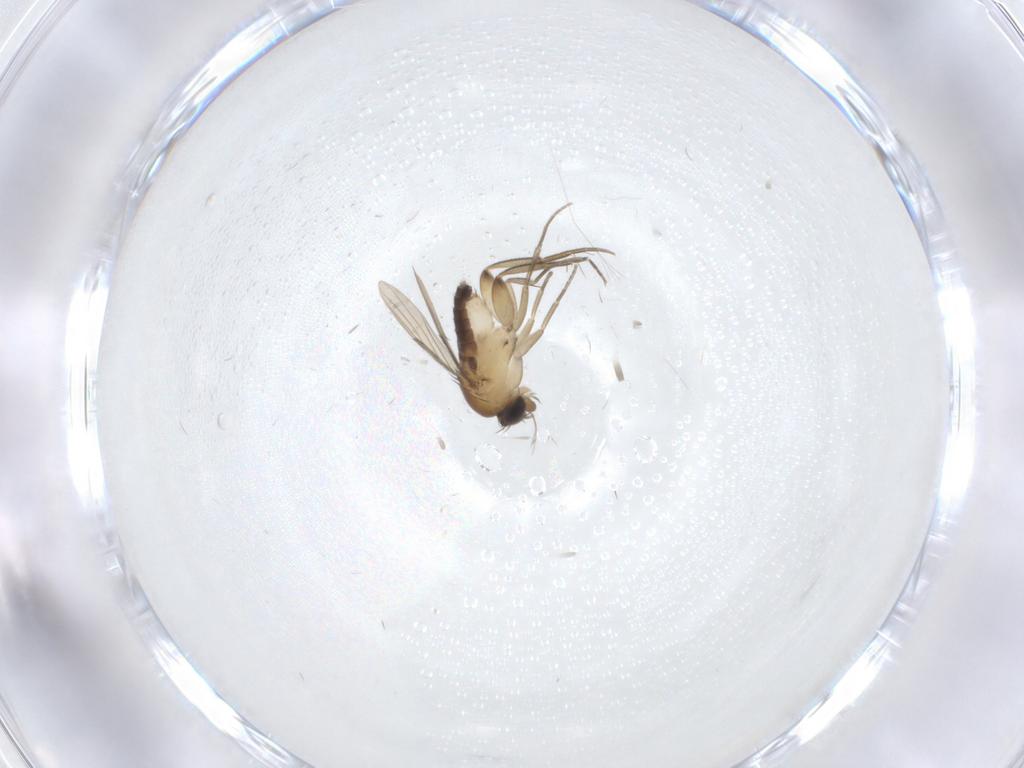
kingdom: Animalia
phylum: Arthropoda
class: Insecta
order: Diptera
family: Phoridae
